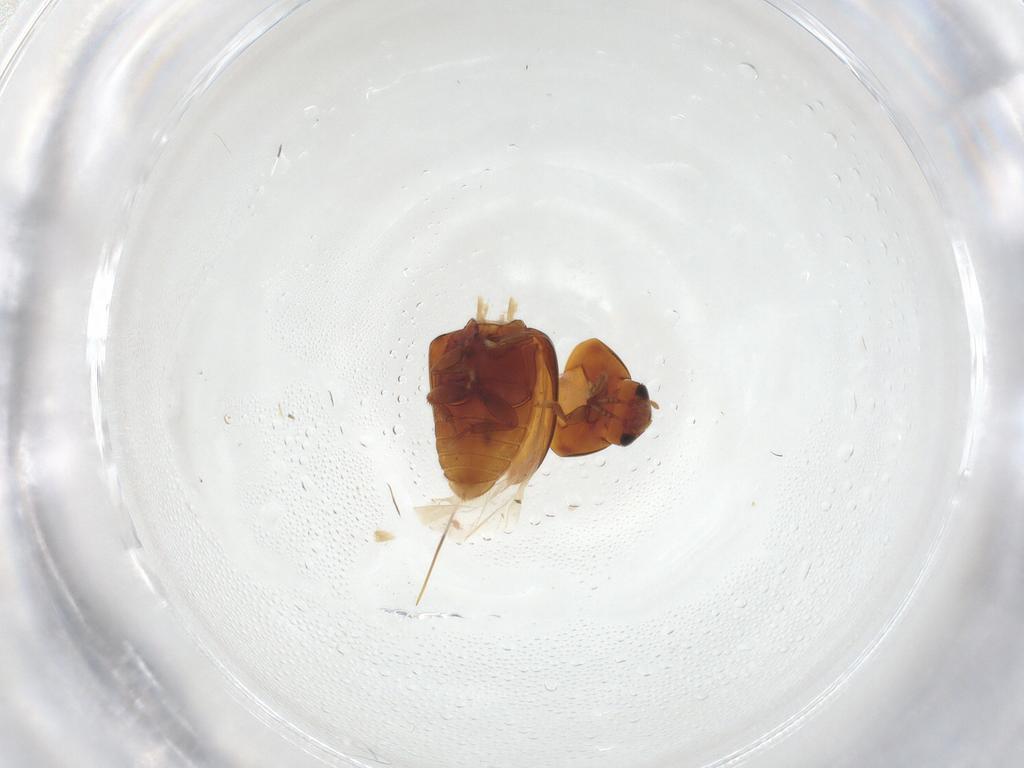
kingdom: Animalia
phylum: Arthropoda
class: Insecta
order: Coleoptera
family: Phalacridae
